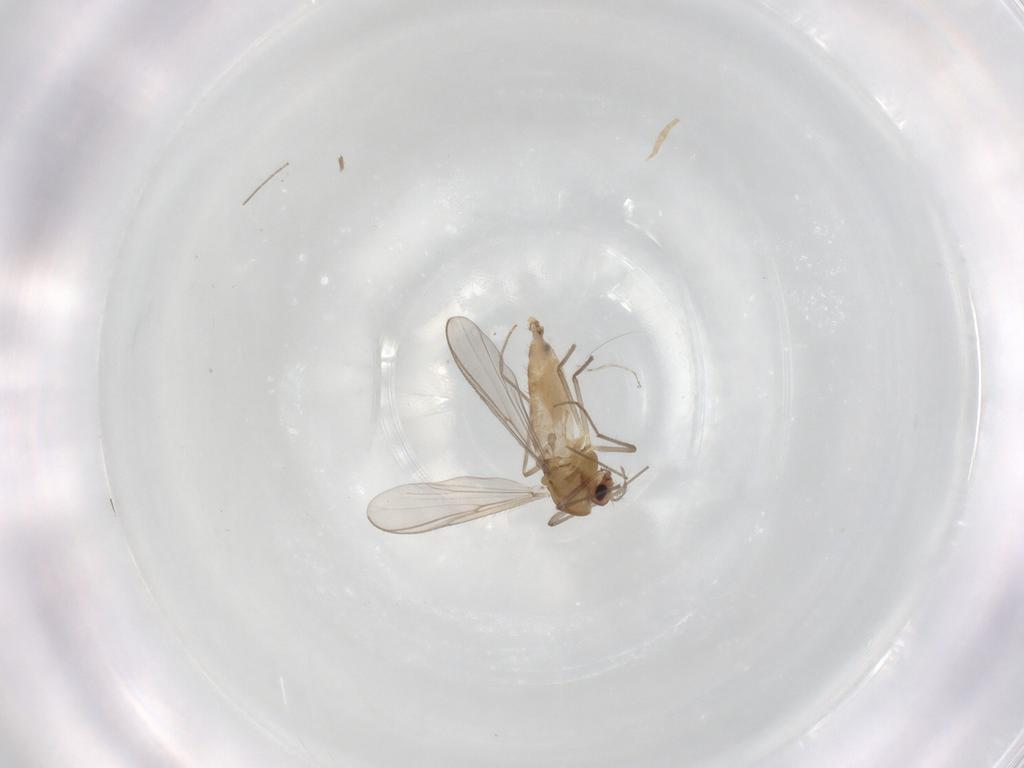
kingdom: Animalia
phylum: Arthropoda
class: Insecta
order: Diptera
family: Chironomidae
